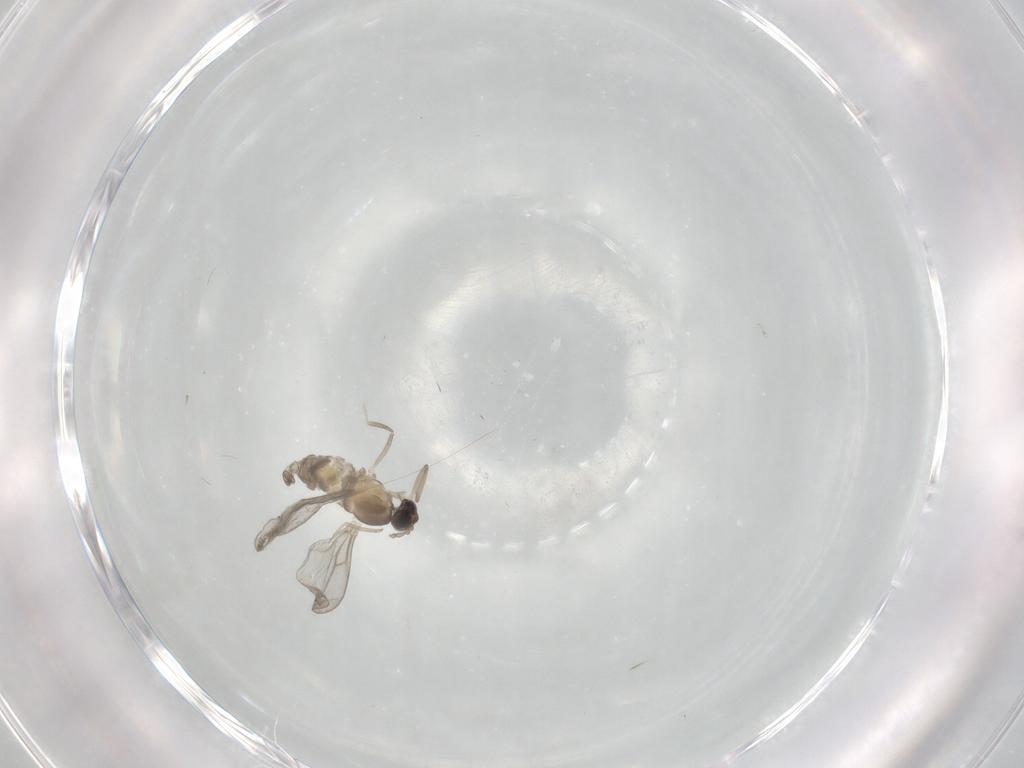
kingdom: Animalia
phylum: Arthropoda
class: Insecta
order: Diptera
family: Cecidomyiidae
